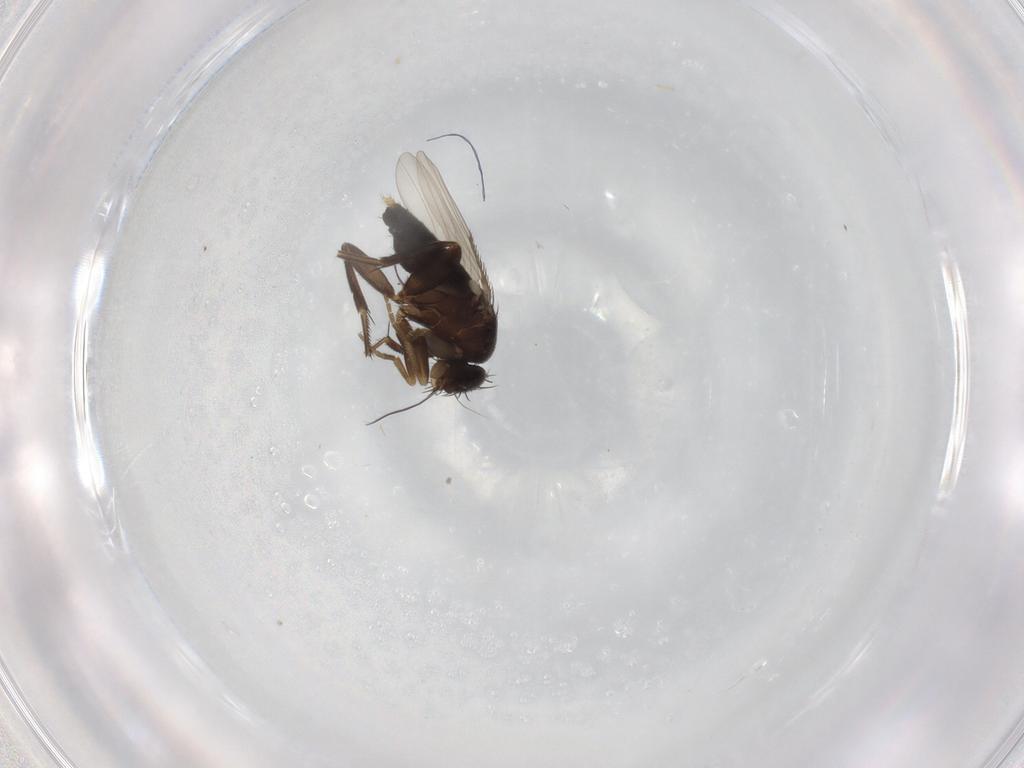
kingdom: Animalia
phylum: Arthropoda
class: Insecta
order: Diptera
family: Phoridae
